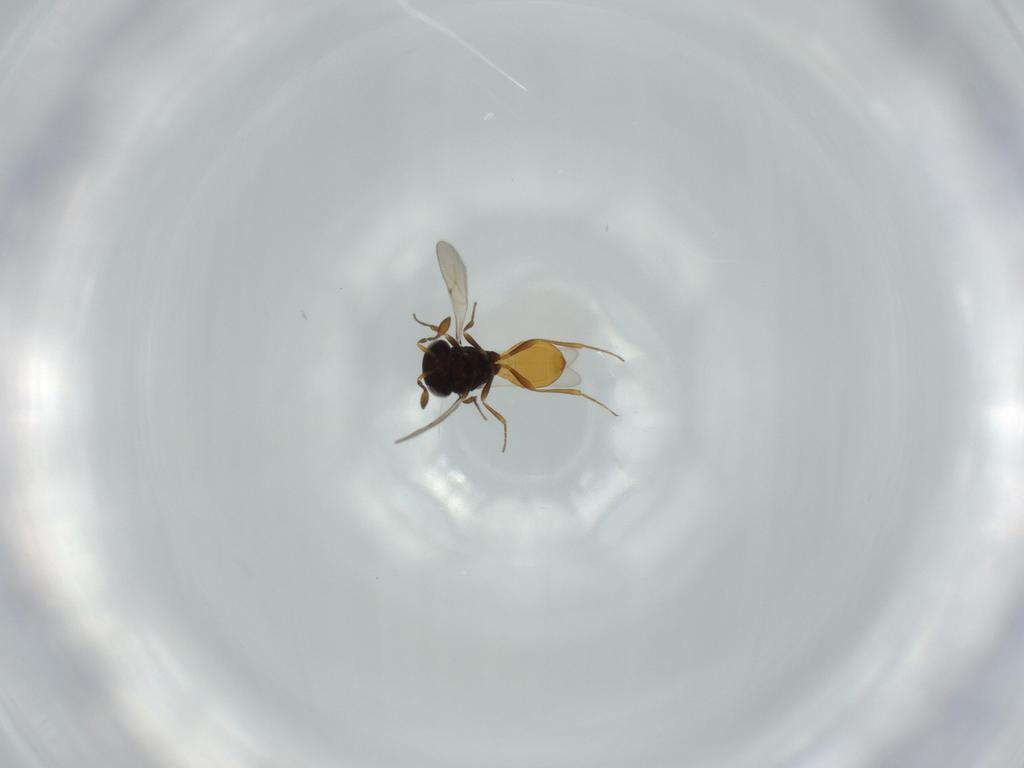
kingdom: Animalia
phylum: Arthropoda
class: Insecta
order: Hymenoptera
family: Scelionidae
